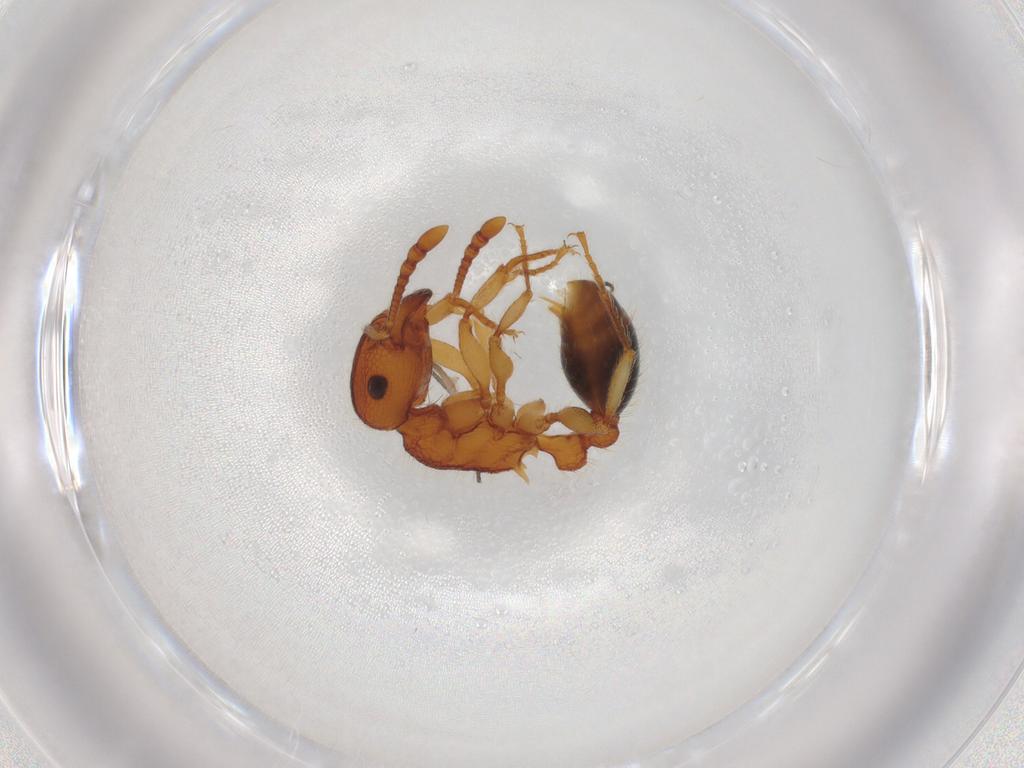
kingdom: Animalia
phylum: Arthropoda
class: Insecta
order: Hymenoptera
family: Formicidae
